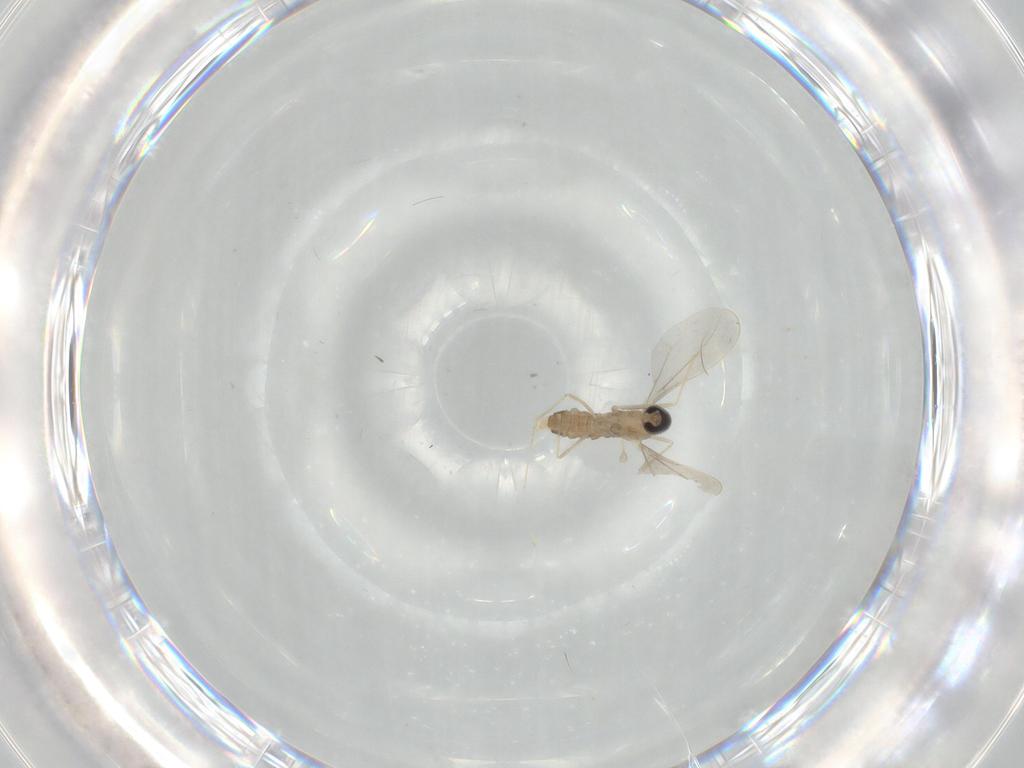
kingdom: Animalia
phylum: Arthropoda
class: Insecta
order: Diptera
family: Cecidomyiidae
